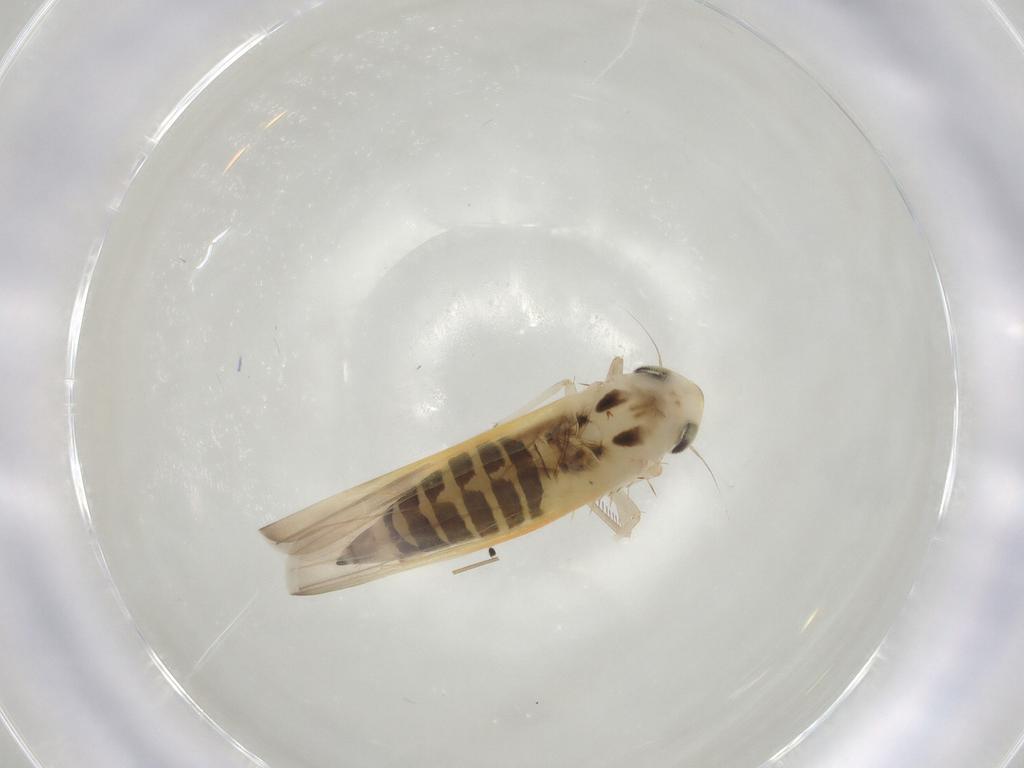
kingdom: Animalia
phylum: Arthropoda
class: Insecta
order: Hemiptera
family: Cicadellidae
